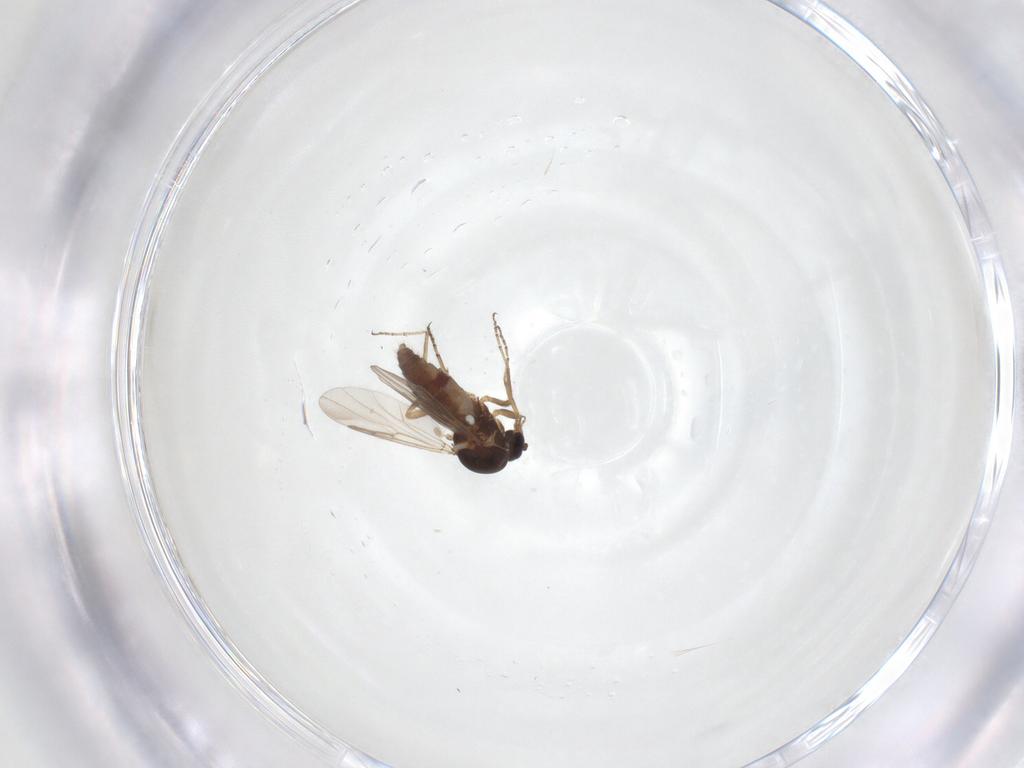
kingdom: Animalia
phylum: Arthropoda
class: Insecta
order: Diptera
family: Ceratopogonidae
